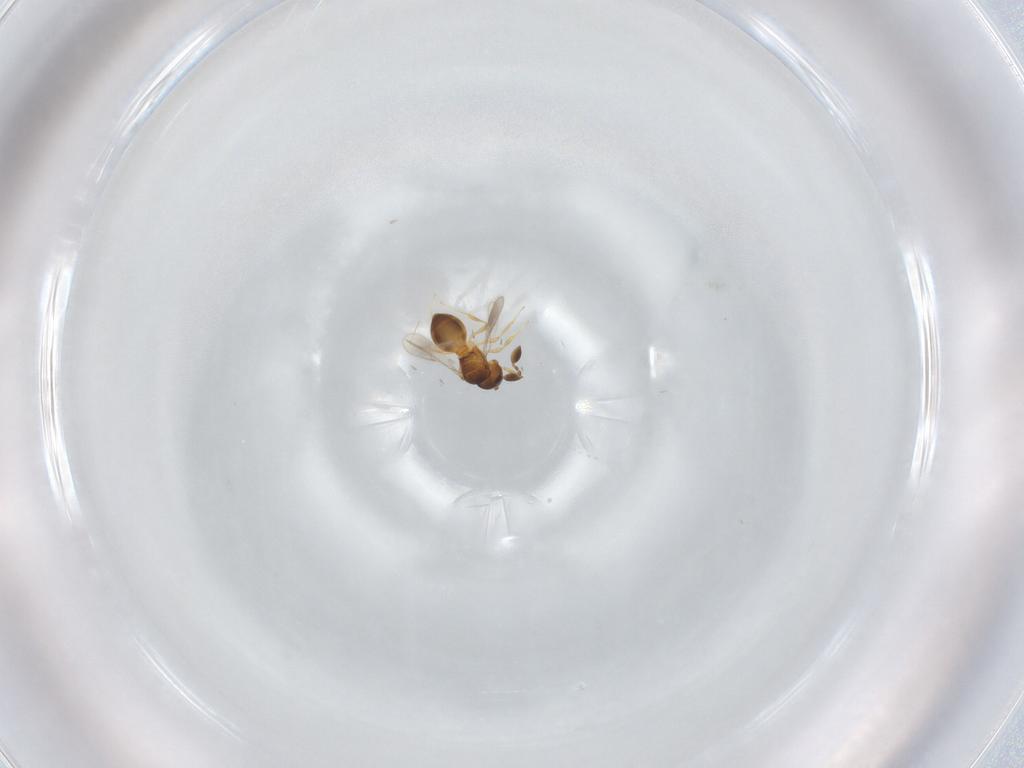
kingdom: Animalia
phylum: Arthropoda
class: Insecta
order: Hymenoptera
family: Scelionidae
